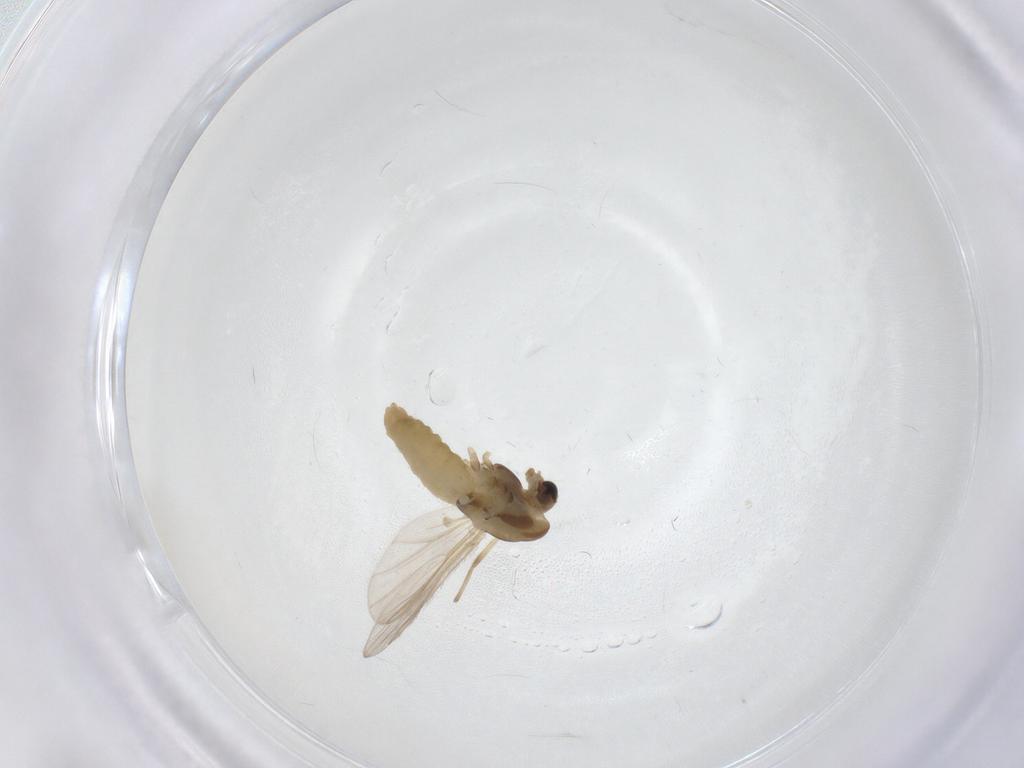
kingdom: Animalia
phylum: Arthropoda
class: Insecta
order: Diptera
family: Chironomidae
